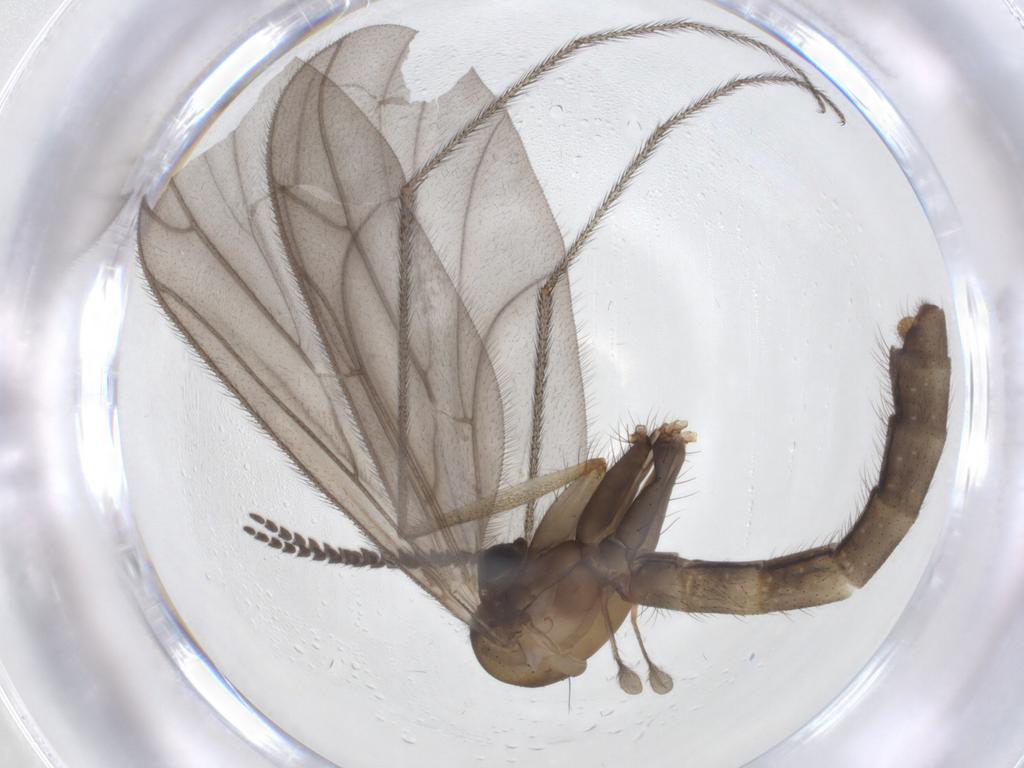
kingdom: Animalia
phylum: Arthropoda
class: Insecta
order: Diptera
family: Ditomyiidae
